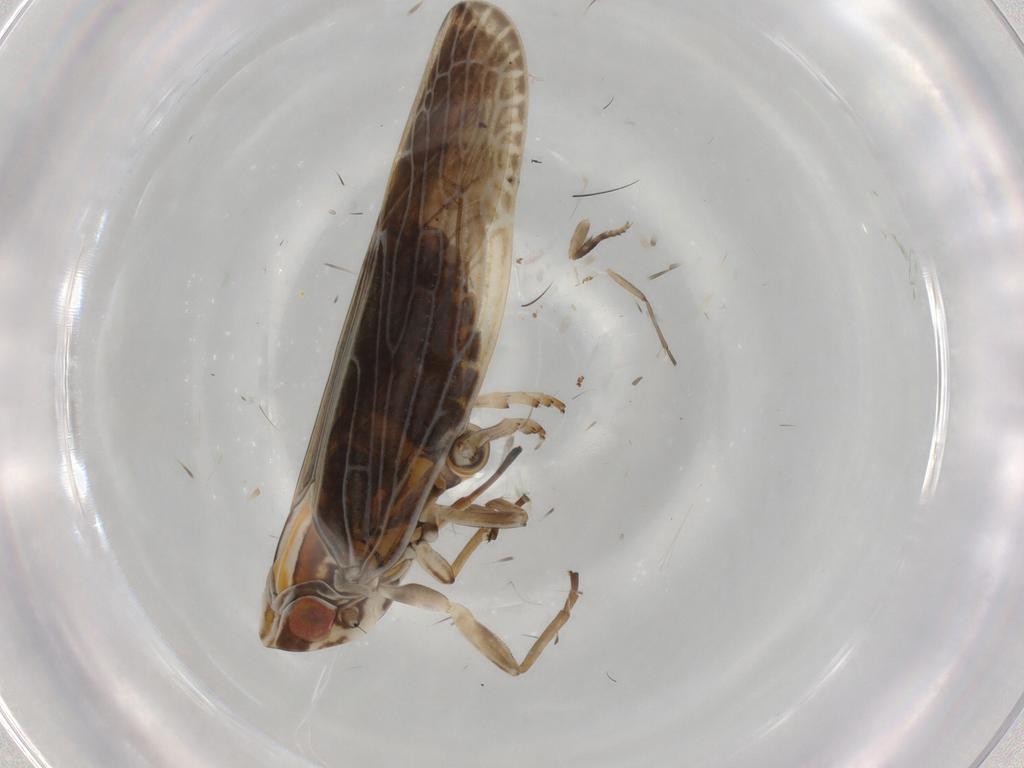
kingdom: Animalia
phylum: Arthropoda
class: Insecta
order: Hemiptera
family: Achilidae
